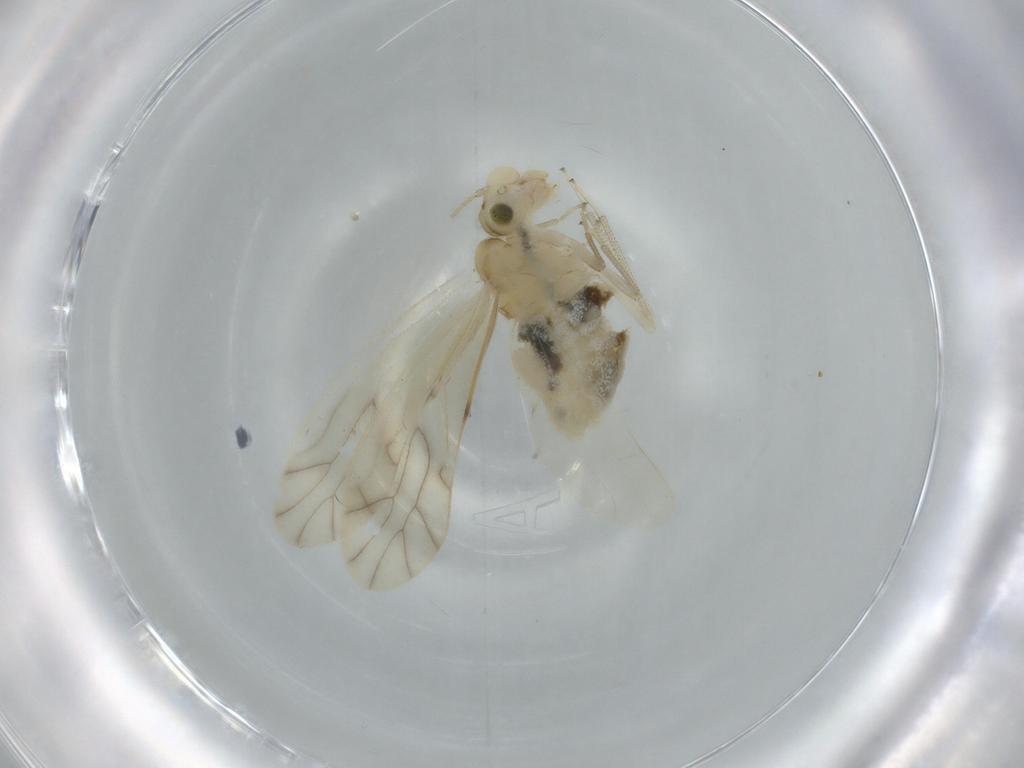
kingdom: Animalia
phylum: Arthropoda
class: Insecta
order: Psocodea
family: Caeciliusidae
